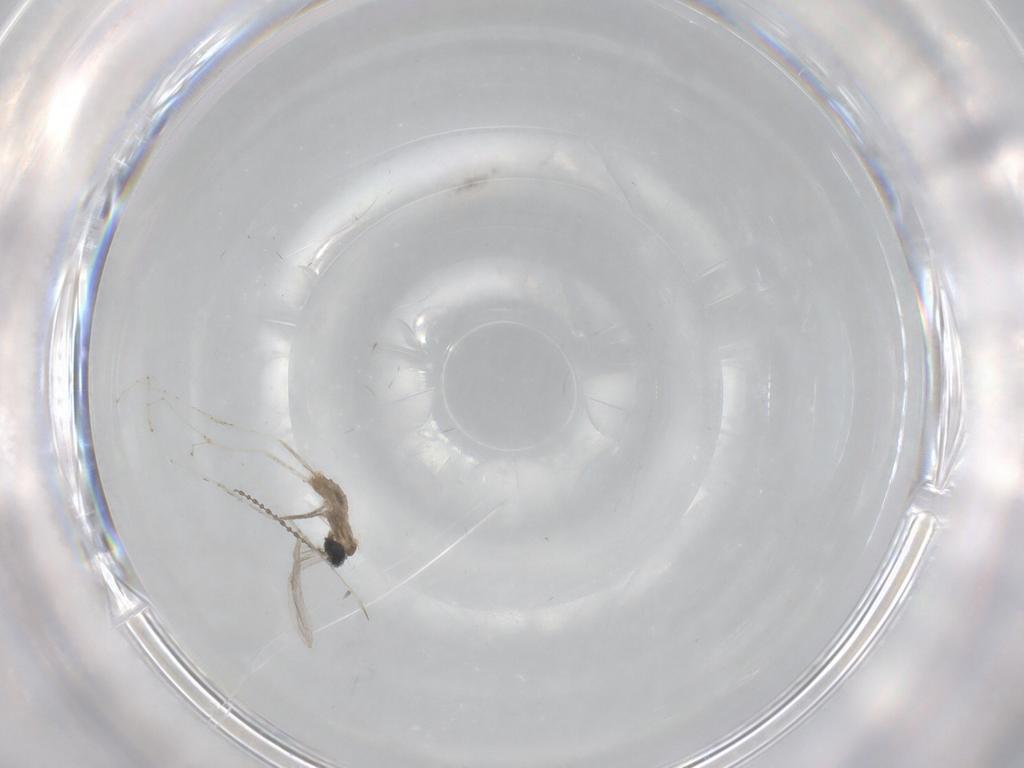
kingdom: Animalia
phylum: Arthropoda
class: Insecta
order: Diptera
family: Cecidomyiidae
